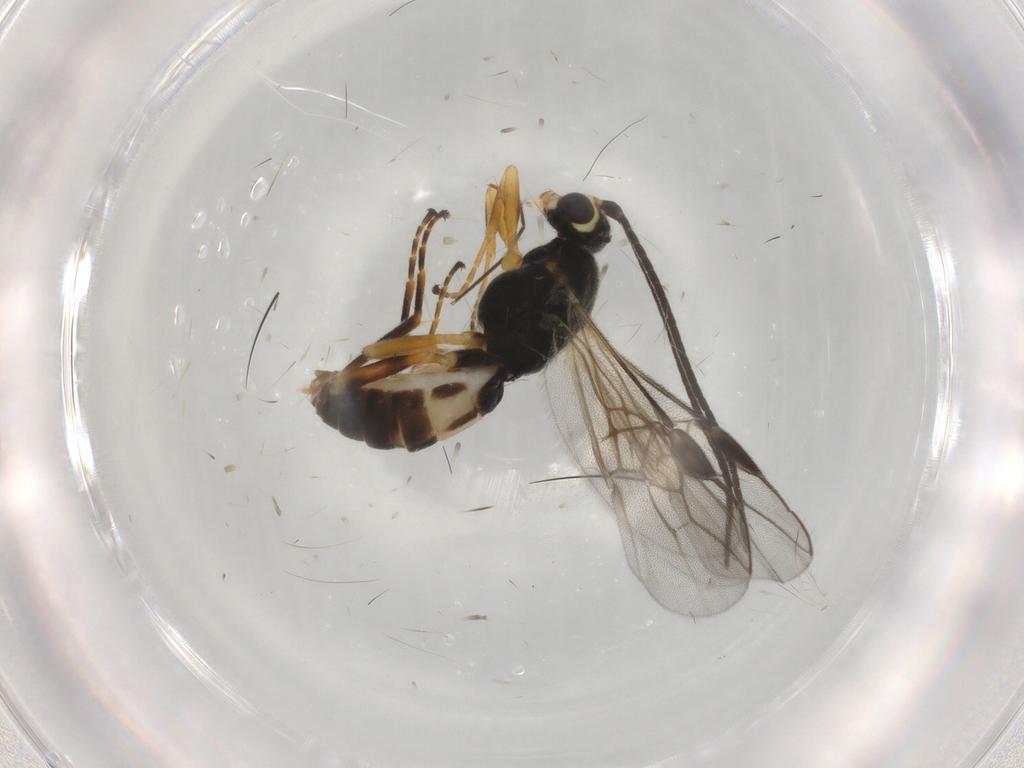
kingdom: Animalia
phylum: Arthropoda
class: Insecta
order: Hymenoptera
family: Braconidae
